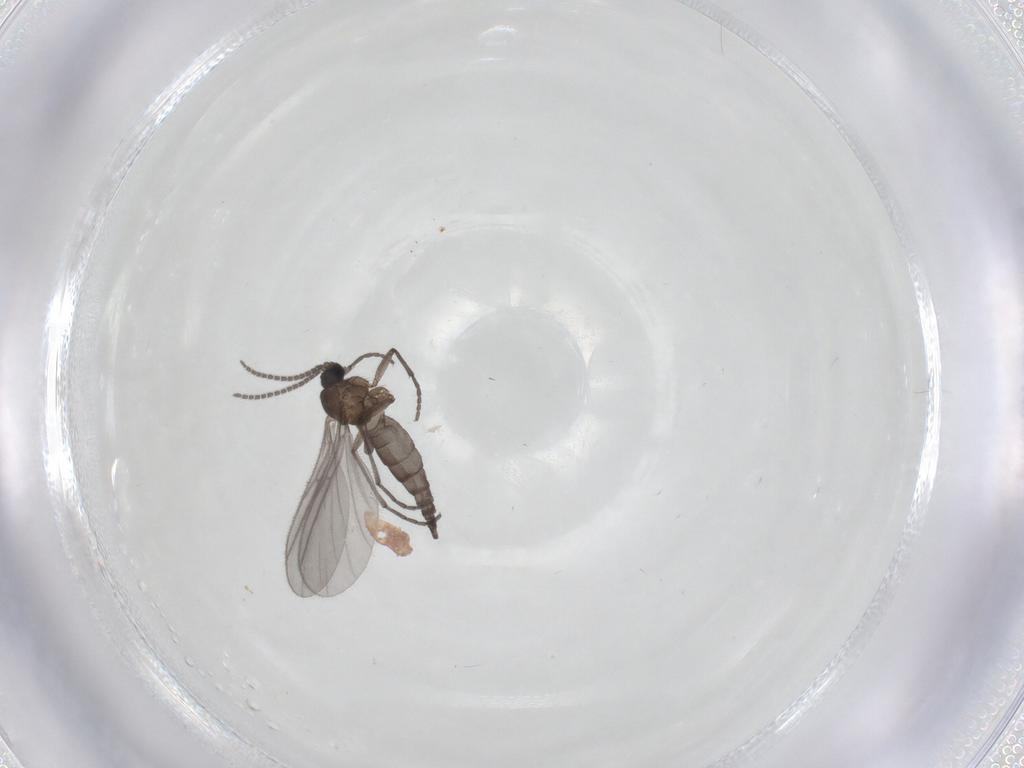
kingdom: Animalia
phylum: Arthropoda
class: Insecta
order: Diptera
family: Sciaridae
